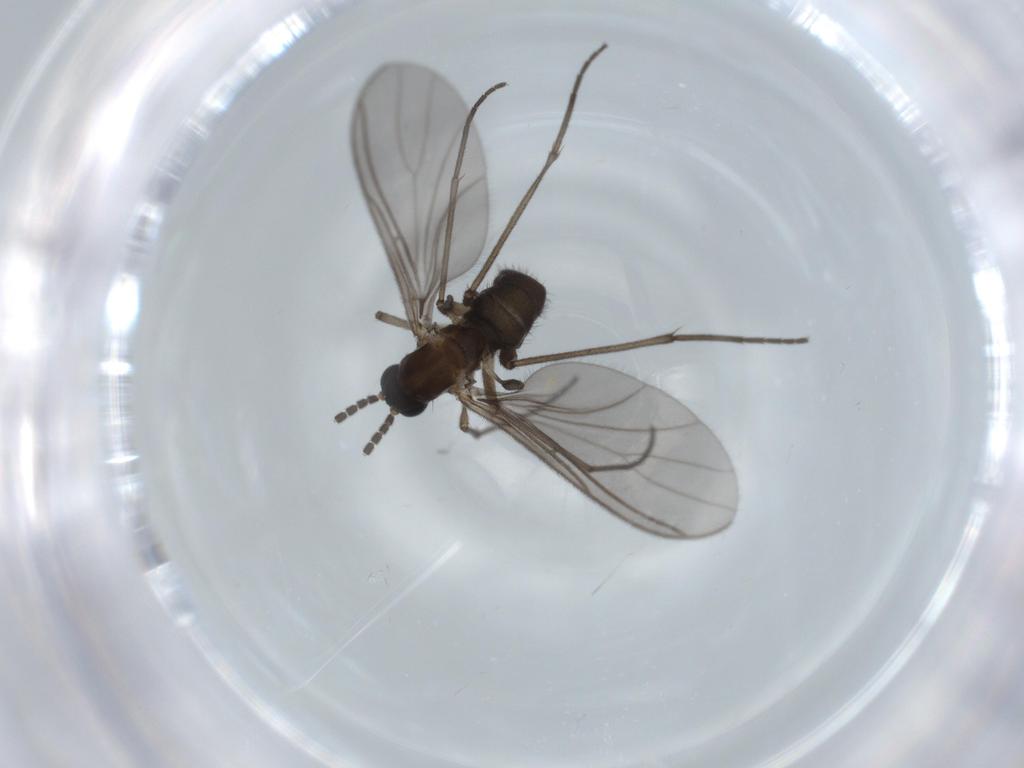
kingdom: Animalia
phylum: Arthropoda
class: Insecta
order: Diptera
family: Sciaridae
